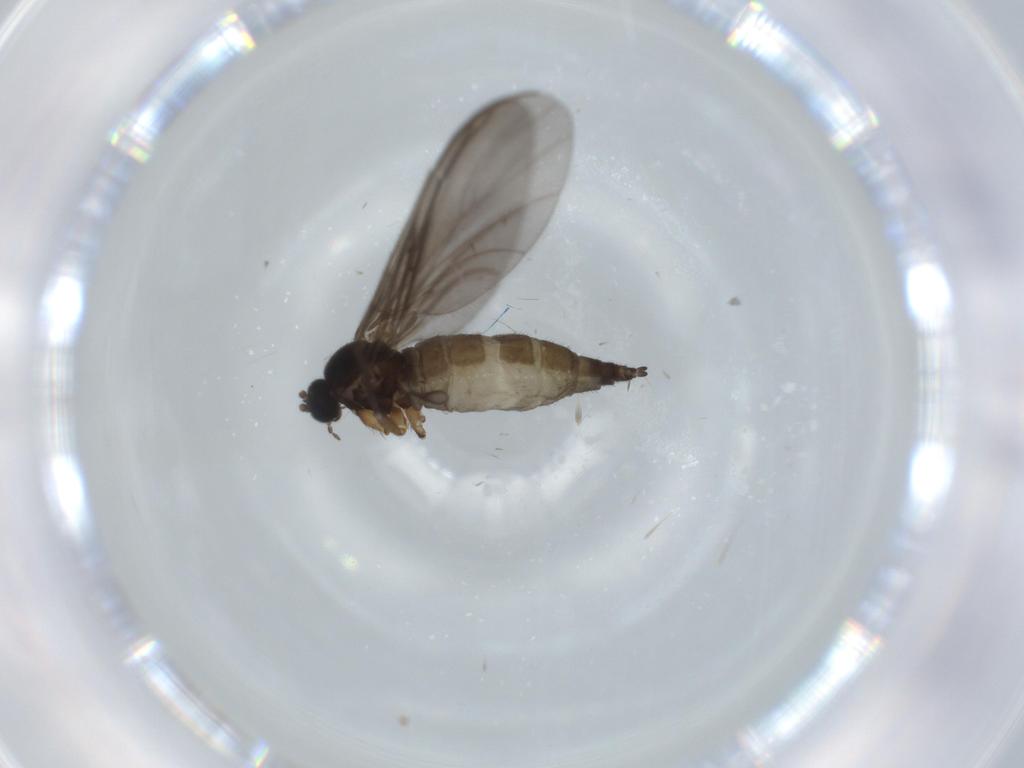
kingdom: Animalia
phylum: Arthropoda
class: Insecta
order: Diptera
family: Sciaridae
